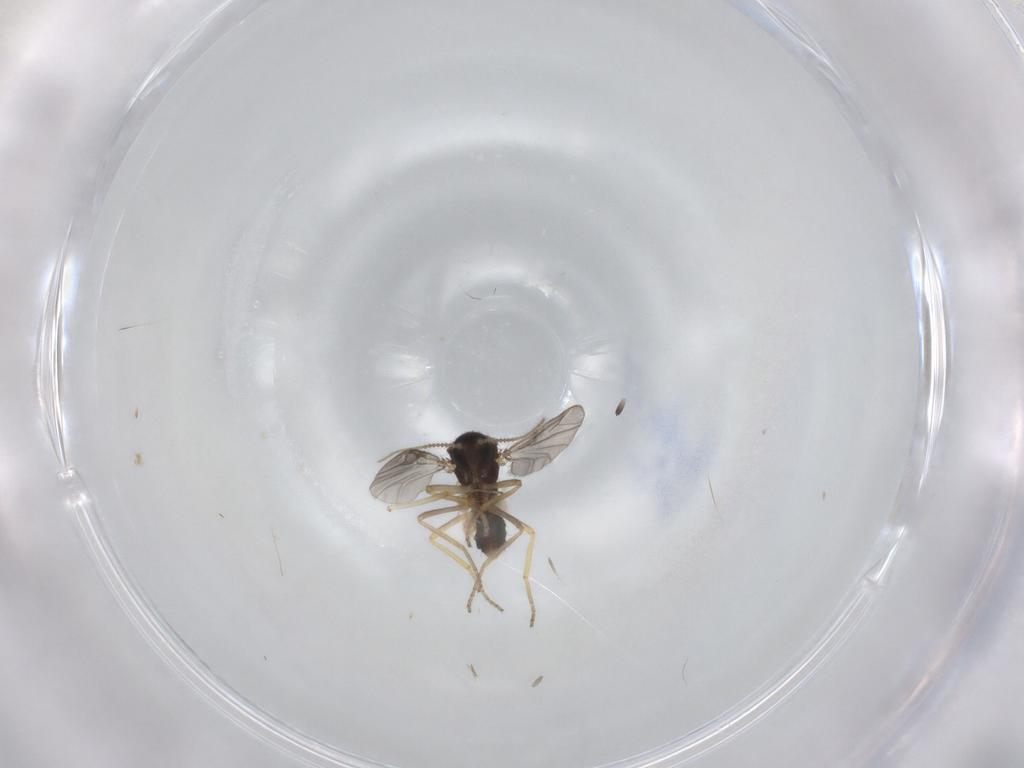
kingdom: Animalia
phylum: Arthropoda
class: Insecta
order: Diptera
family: Ceratopogonidae
